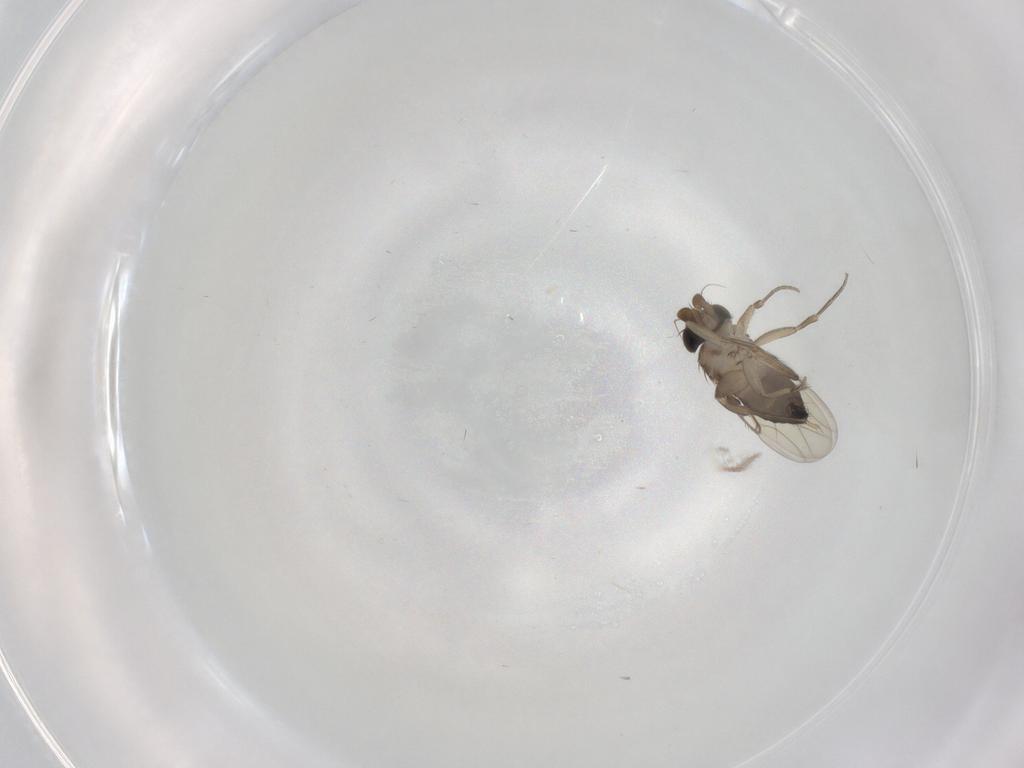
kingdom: Animalia
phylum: Arthropoda
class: Insecta
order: Diptera
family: Phoridae
